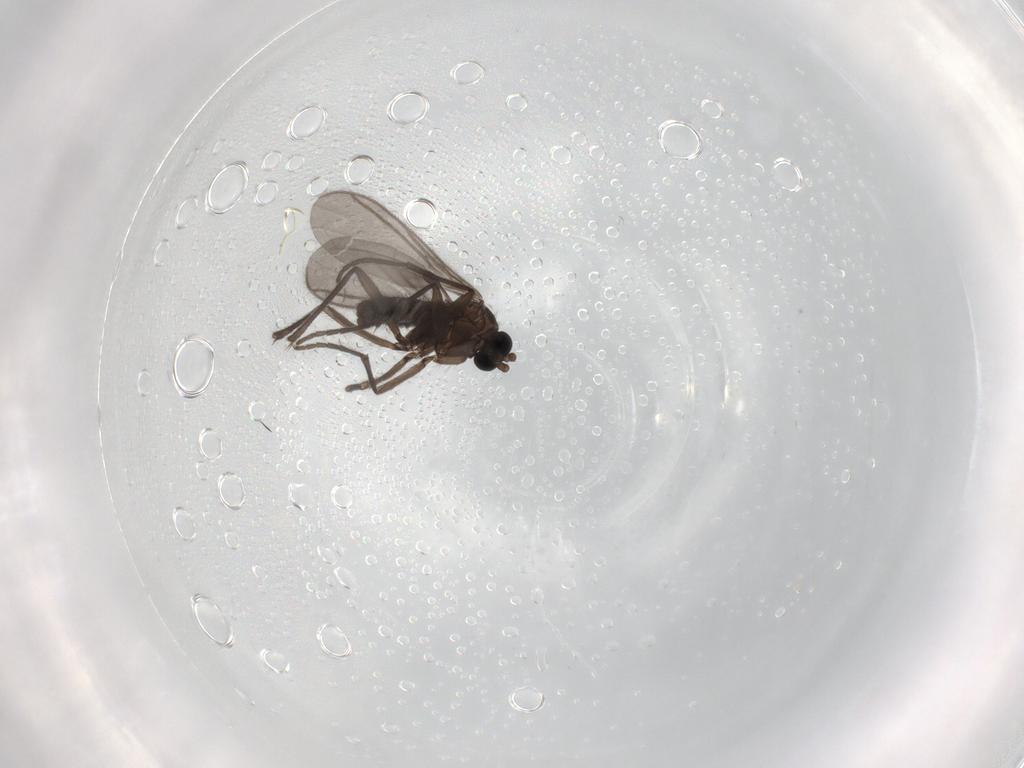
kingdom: Animalia
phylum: Arthropoda
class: Insecta
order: Diptera
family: Sciaridae
